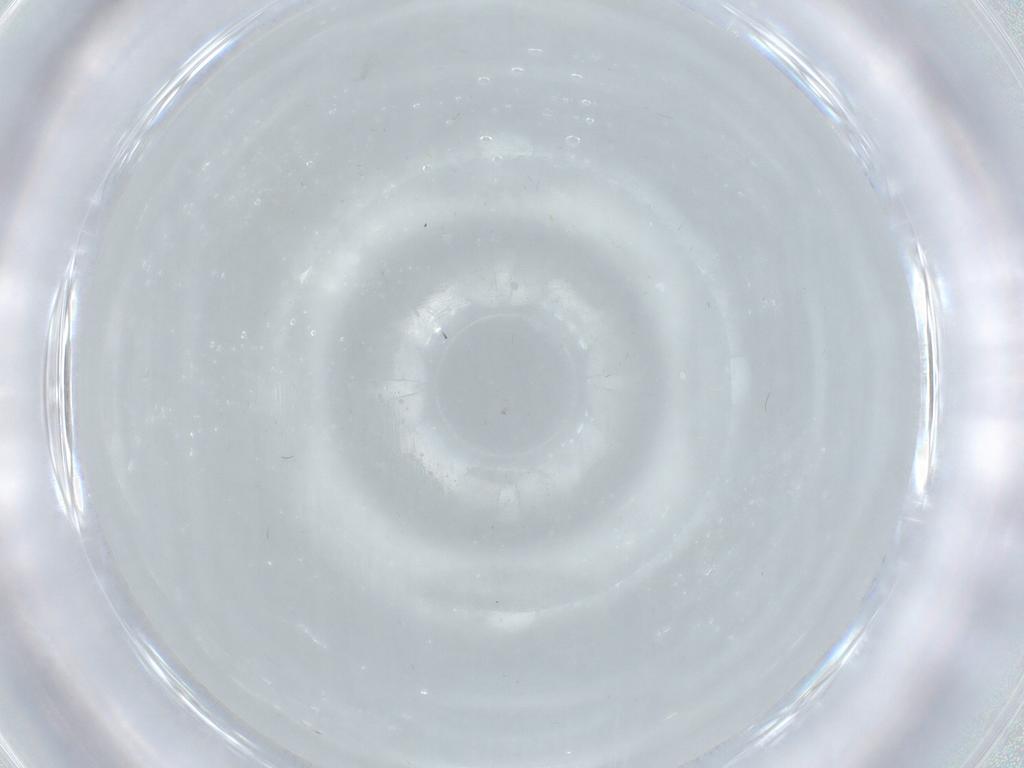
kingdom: Animalia
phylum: Arthropoda
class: Insecta
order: Diptera
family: Cecidomyiidae
